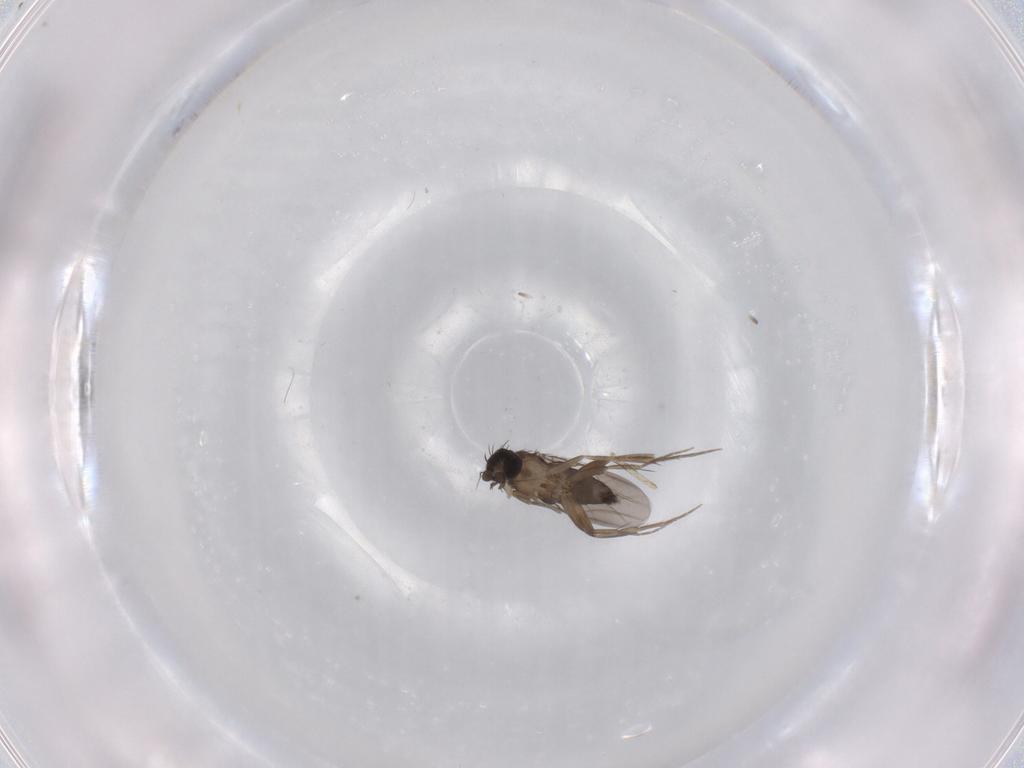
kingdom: Animalia
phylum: Arthropoda
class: Insecta
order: Diptera
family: Phoridae
